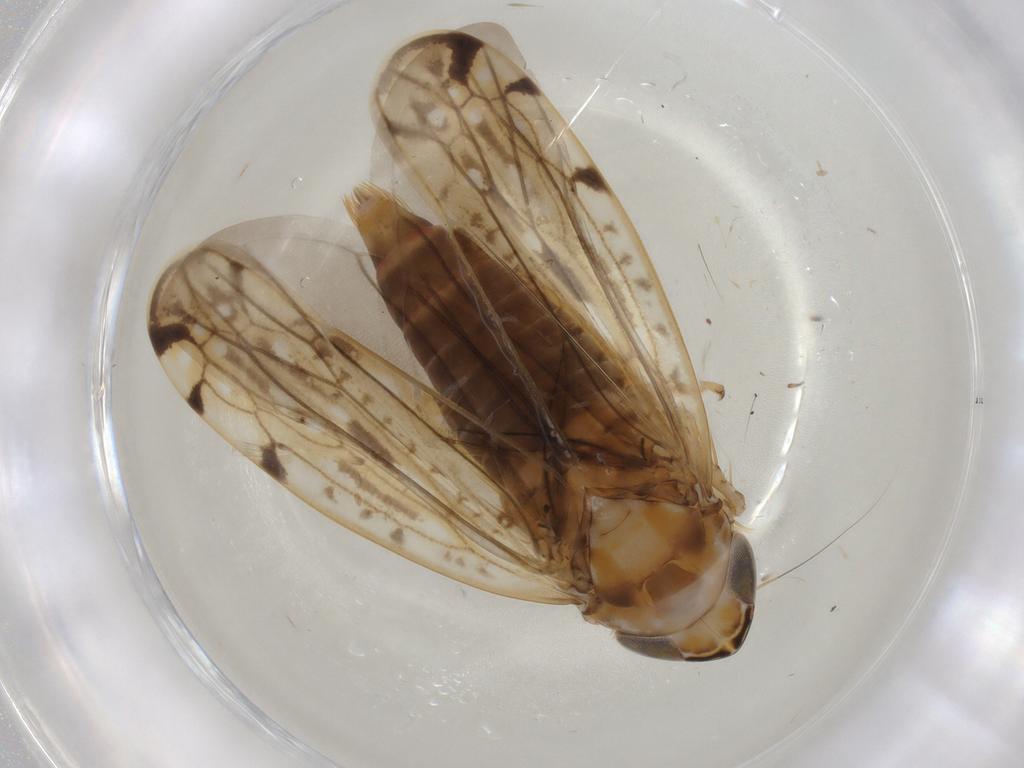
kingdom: Animalia
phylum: Arthropoda
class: Insecta
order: Hemiptera
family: Cicadellidae
